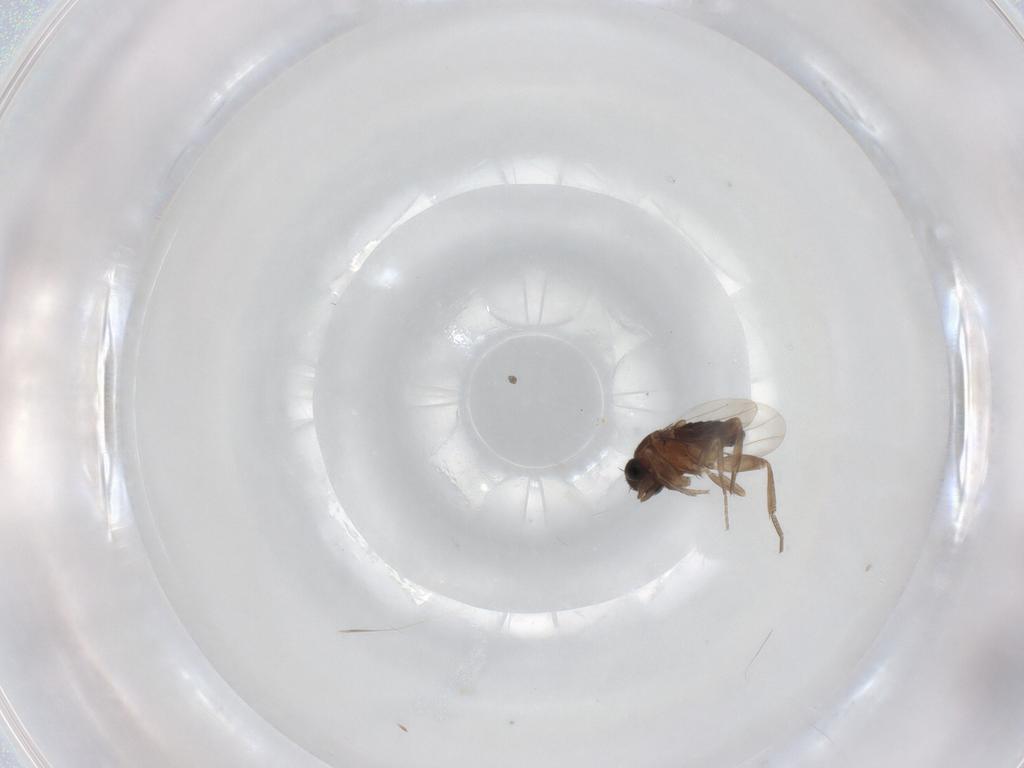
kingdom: Animalia
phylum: Arthropoda
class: Insecta
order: Diptera
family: Phoridae
